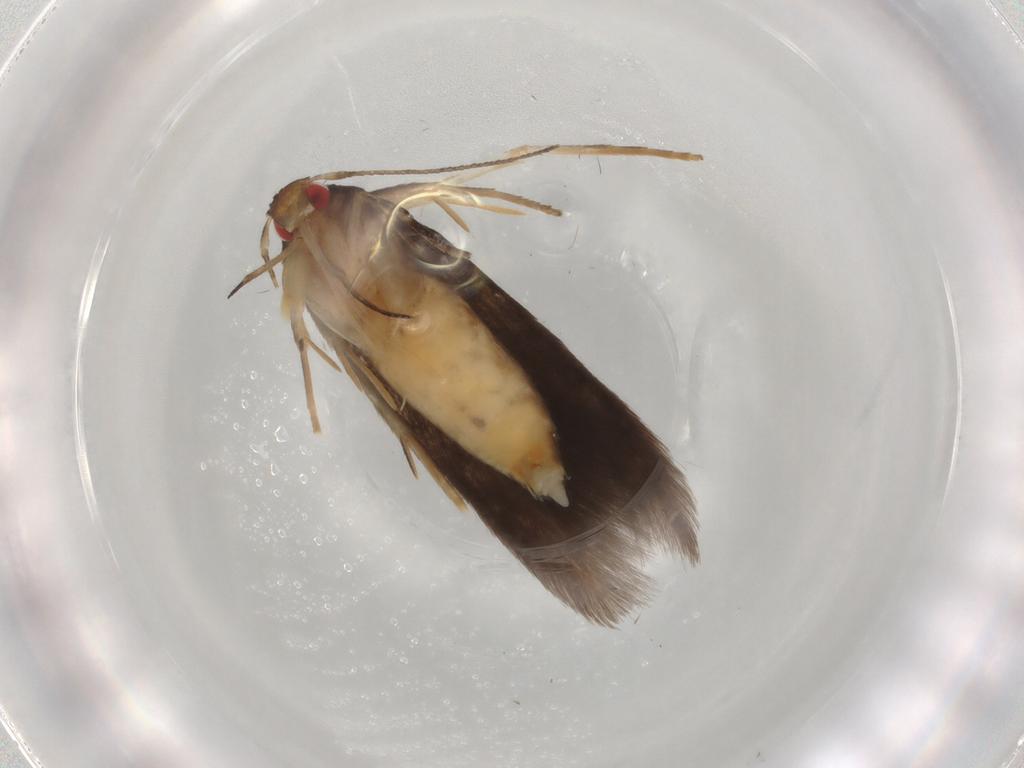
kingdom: Animalia
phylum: Arthropoda
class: Insecta
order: Lepidoptera
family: Cosmopterigidae
